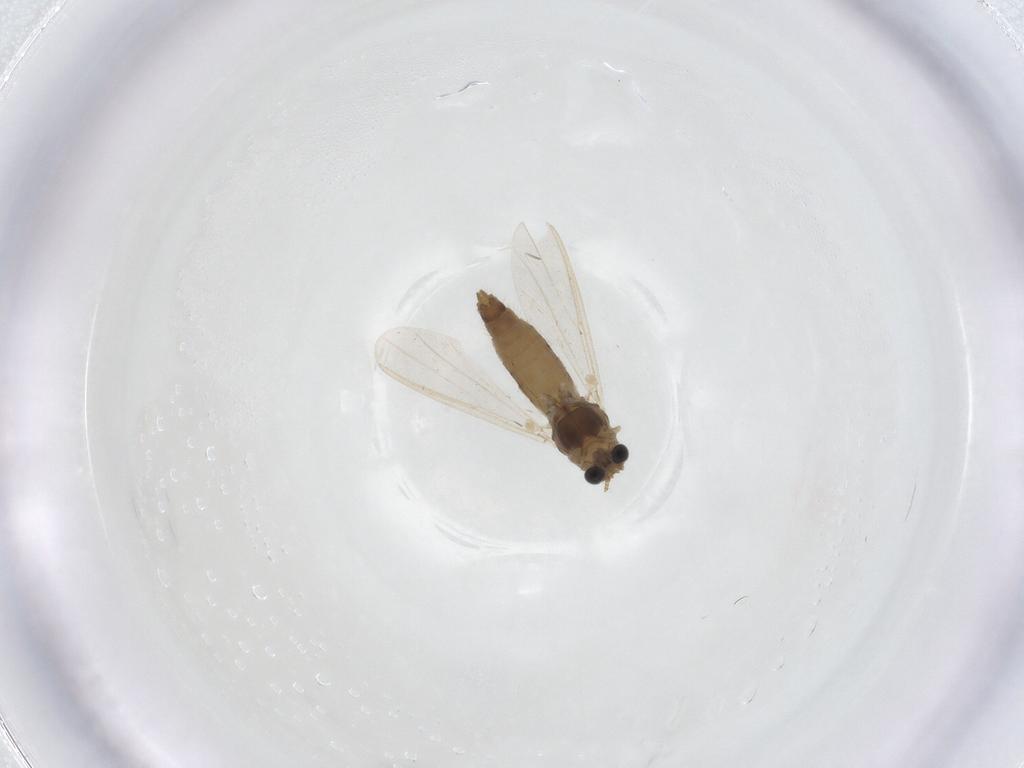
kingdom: Animalia
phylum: Arthropoda
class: Insecta
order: Diptera
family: Chironomidae
